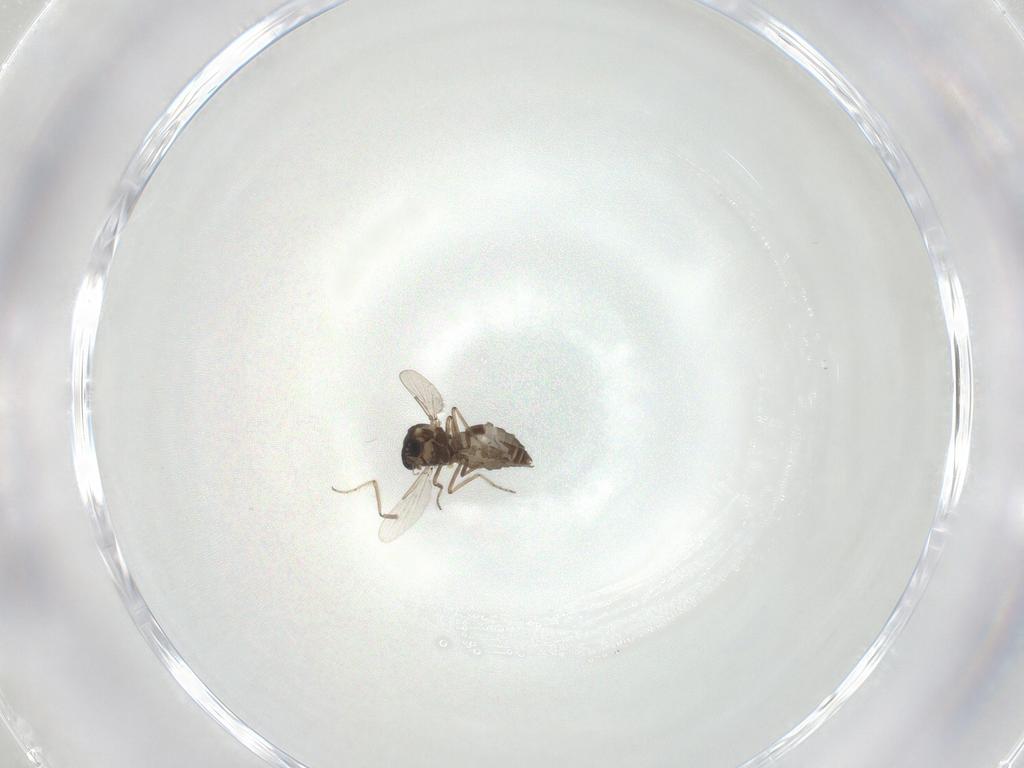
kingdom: Animalia
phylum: Arthropoda
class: Insecta
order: Diptera
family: Ceratopogonidae
